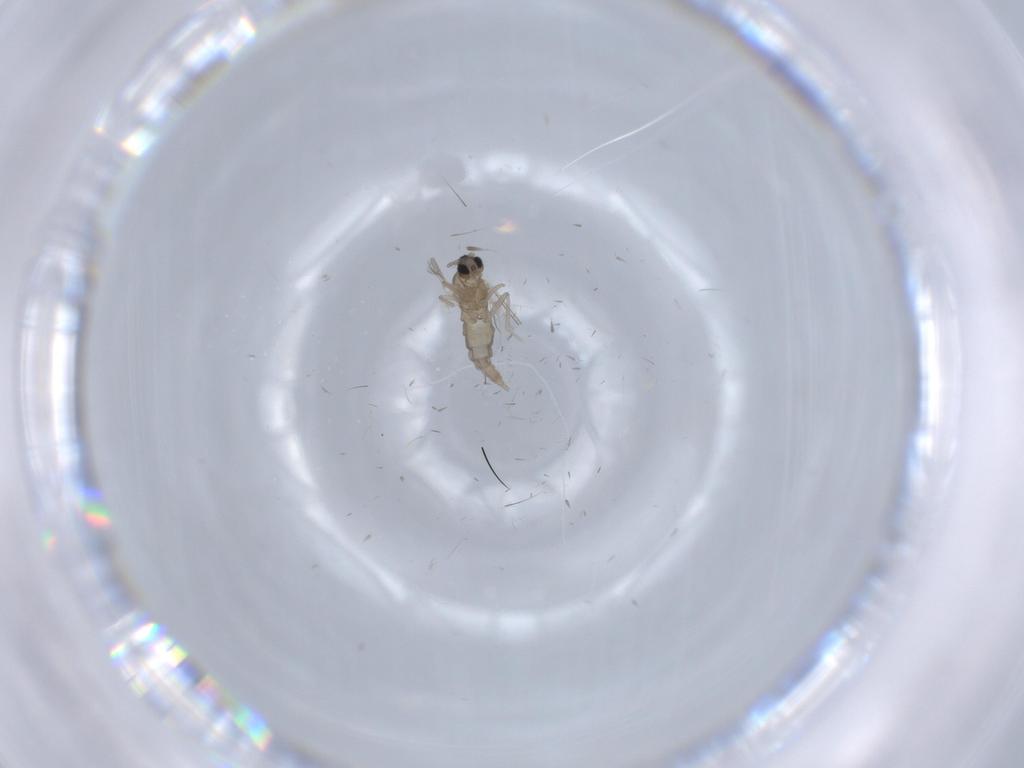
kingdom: Animalia
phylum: Arthropoda
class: Insecta
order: Diptera
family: Cecidomyiidae
